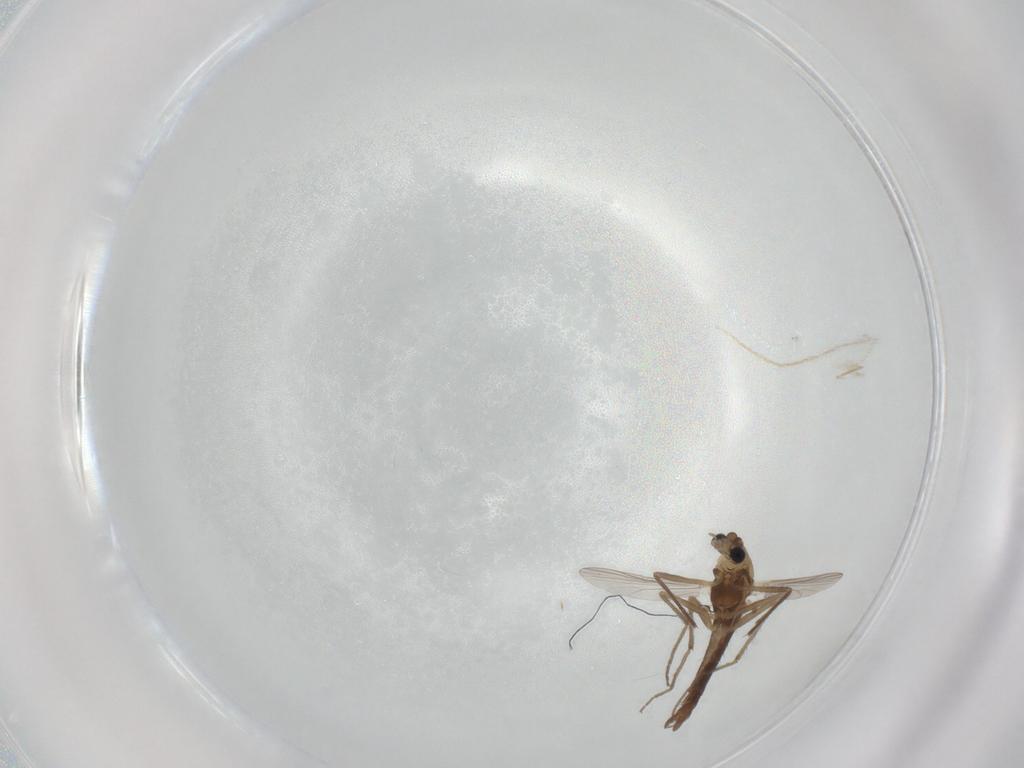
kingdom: Animalia
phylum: Arthropoda
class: Insecta
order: Diptera
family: Chironomidae
